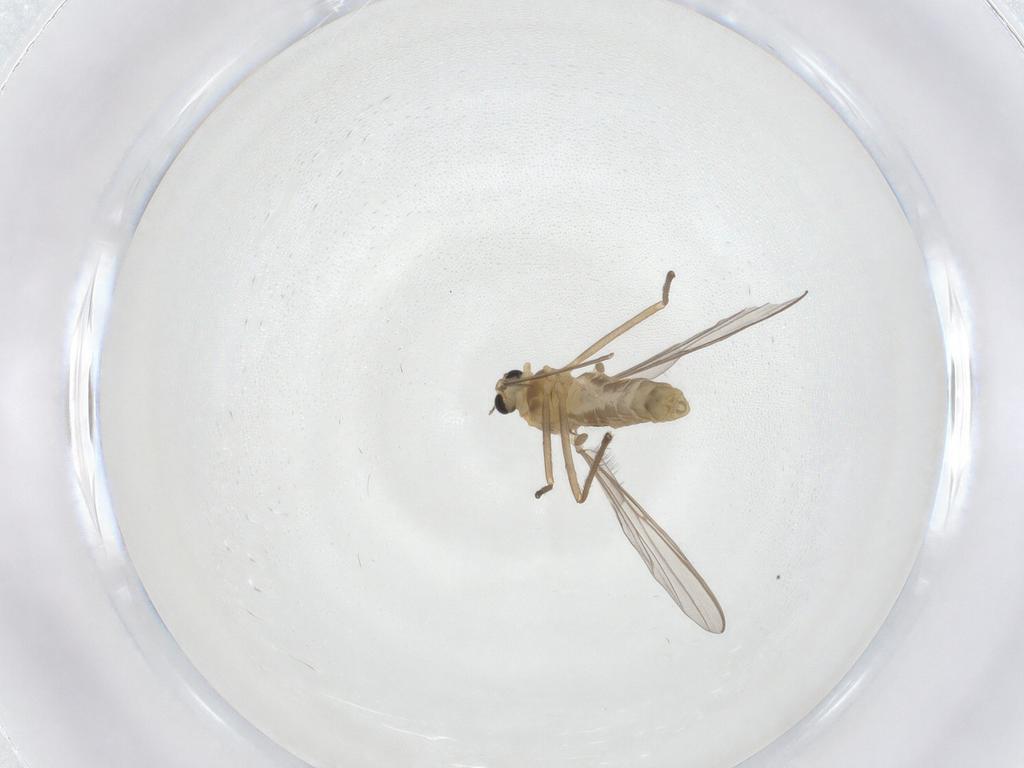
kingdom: Animalia
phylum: Arthropoda
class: Insecta
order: Diptera
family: Chironomidae
